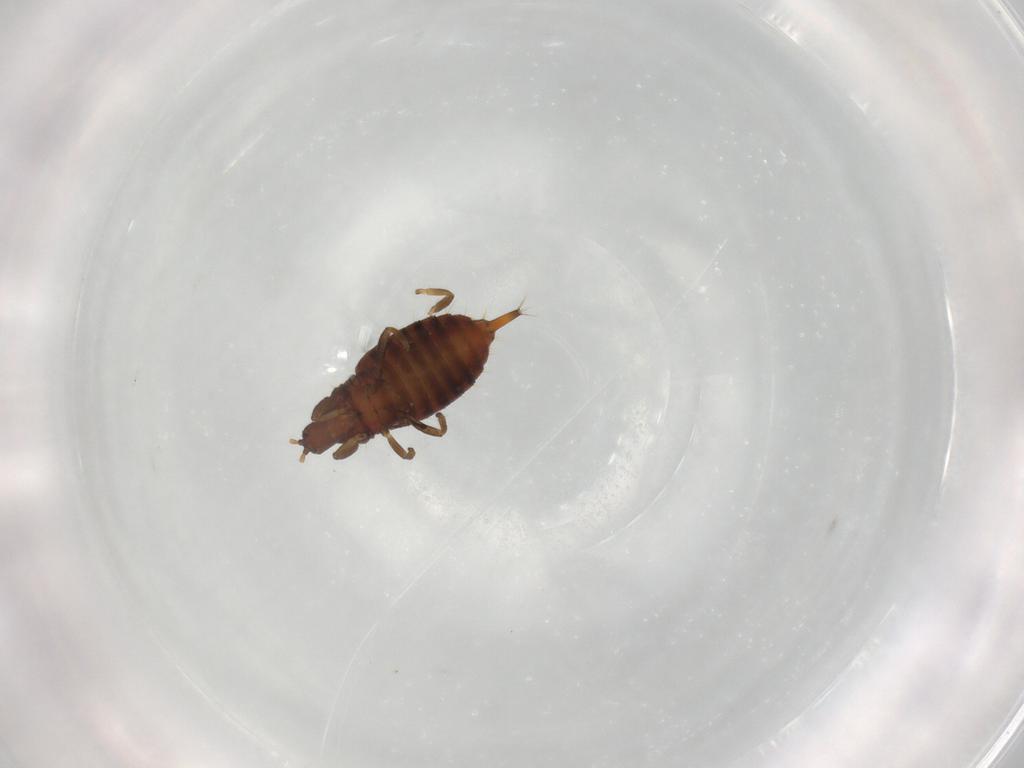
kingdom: Animalia
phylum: Arthropoda
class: Insecta
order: Thysanoptera
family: Phlaeothripidae
